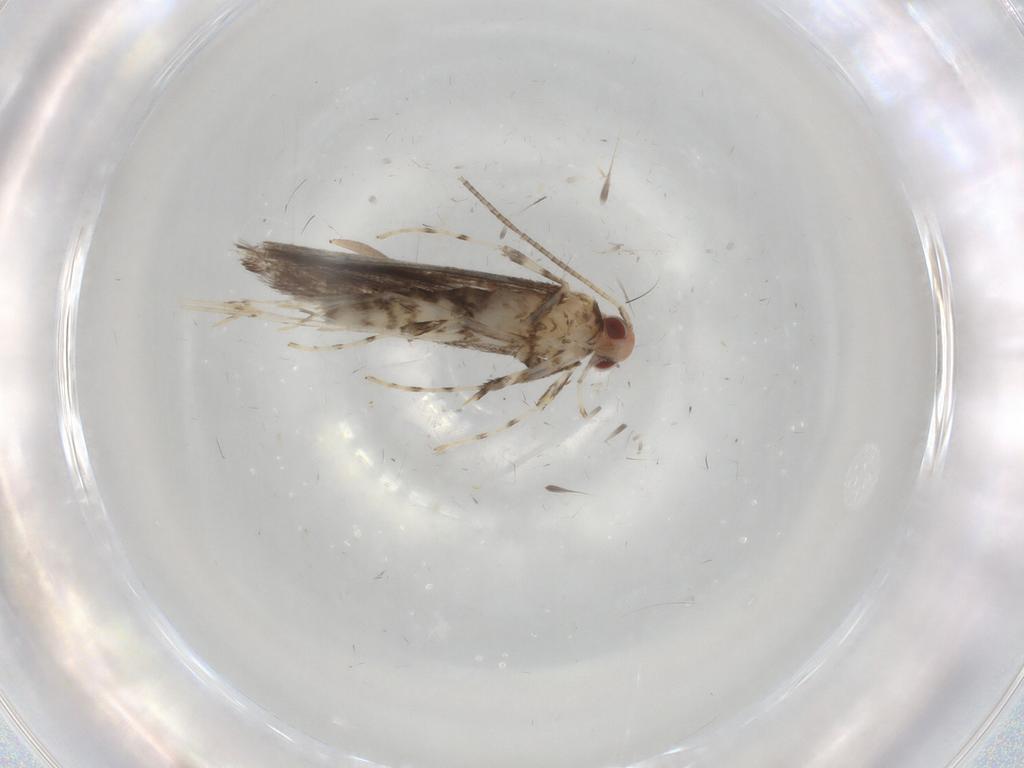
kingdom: Animalia
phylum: Arthropoda
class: Insecta
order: Lepidoptera
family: Gracillariidae
